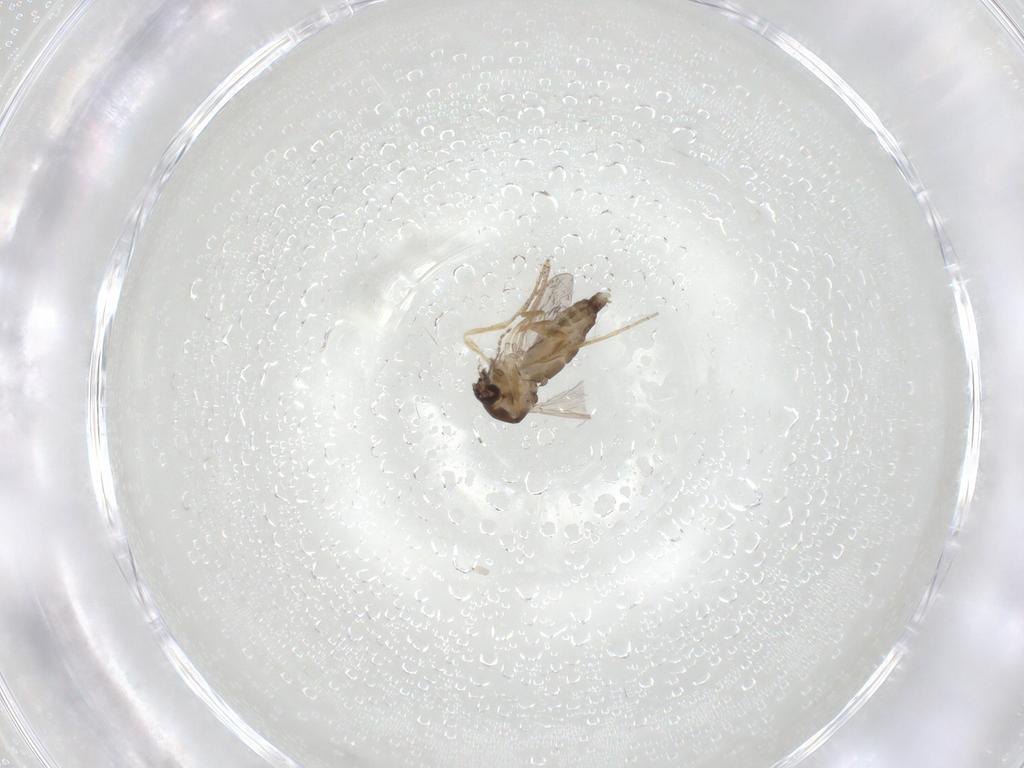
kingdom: Animalia
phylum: Arthropoda
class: Insecta
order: Diptera
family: Ceratopogonidae
